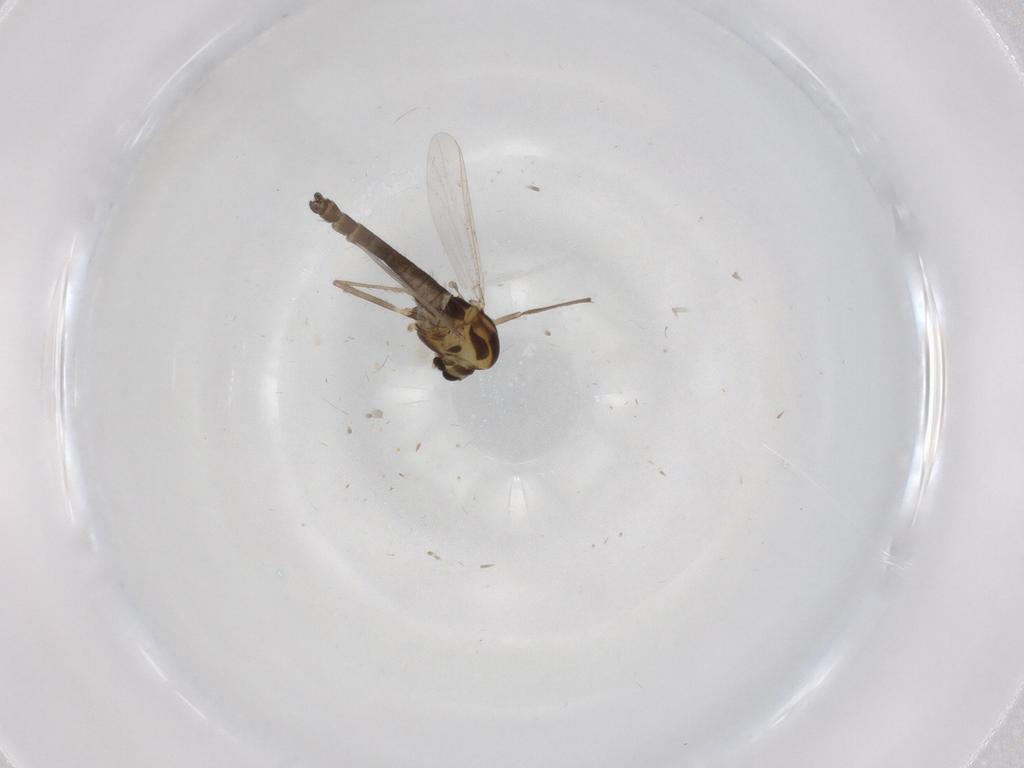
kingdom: Animalia
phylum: Arthropoda
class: Insecta
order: Diptera
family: Chironomidae
